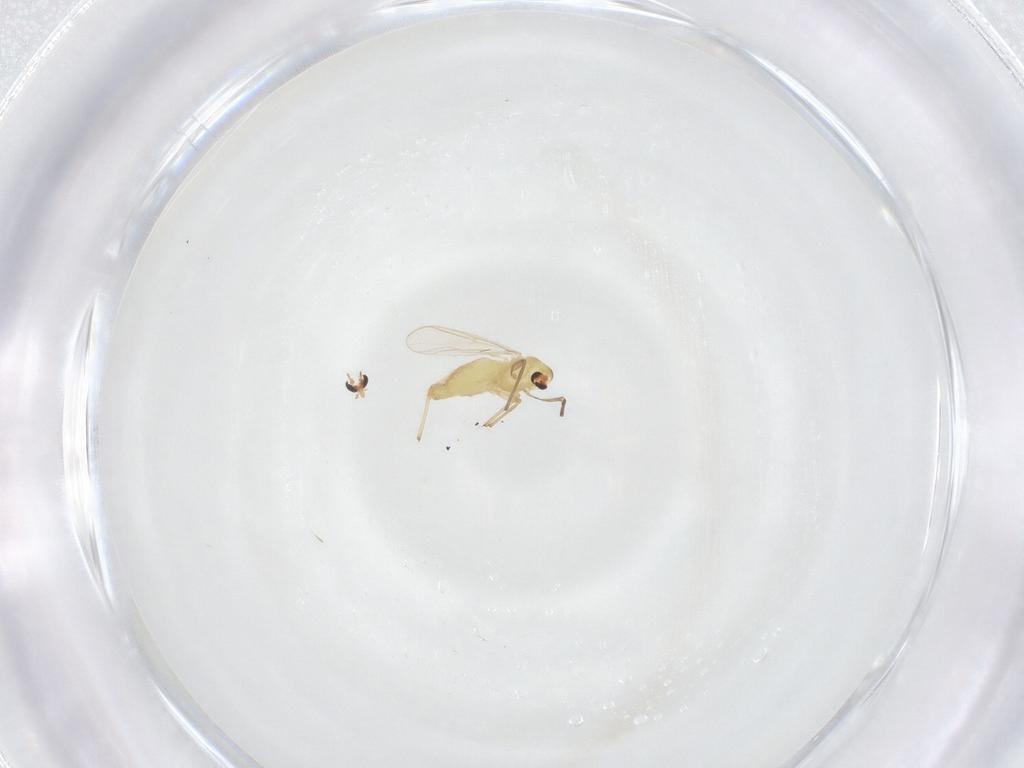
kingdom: Animalia
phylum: Arthropoda
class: Insecta
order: Diptera
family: Chironomidae
